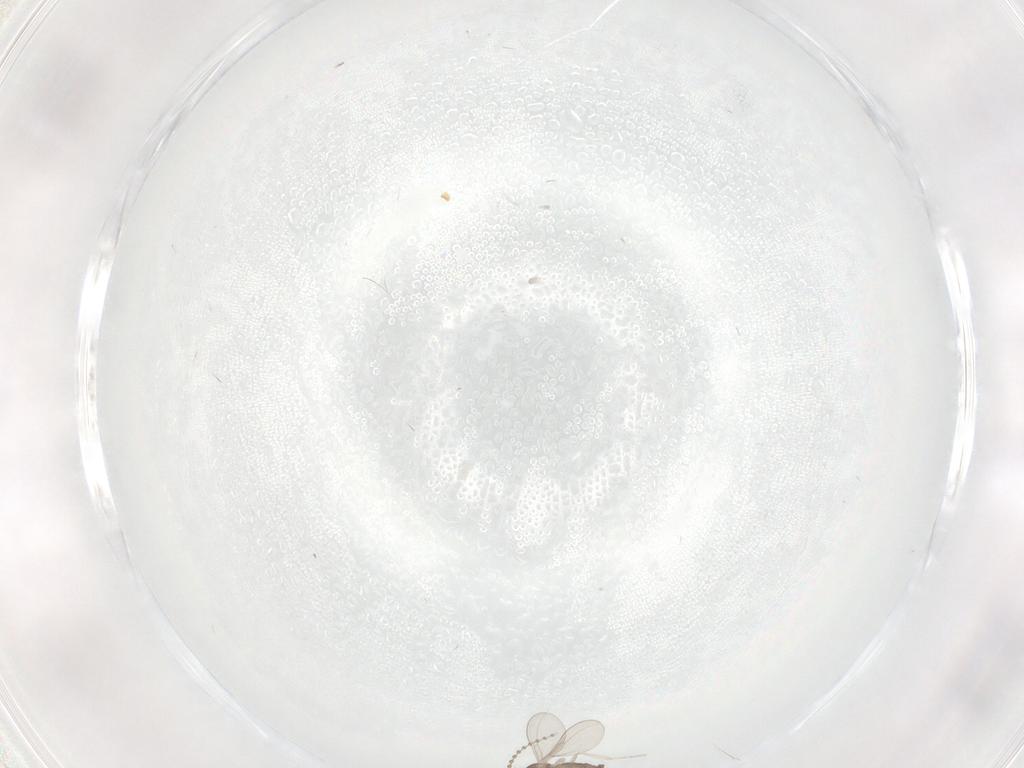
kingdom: Animalia
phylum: Arthropoda
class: Insecta
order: Diptera
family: Cecidomyiidae
